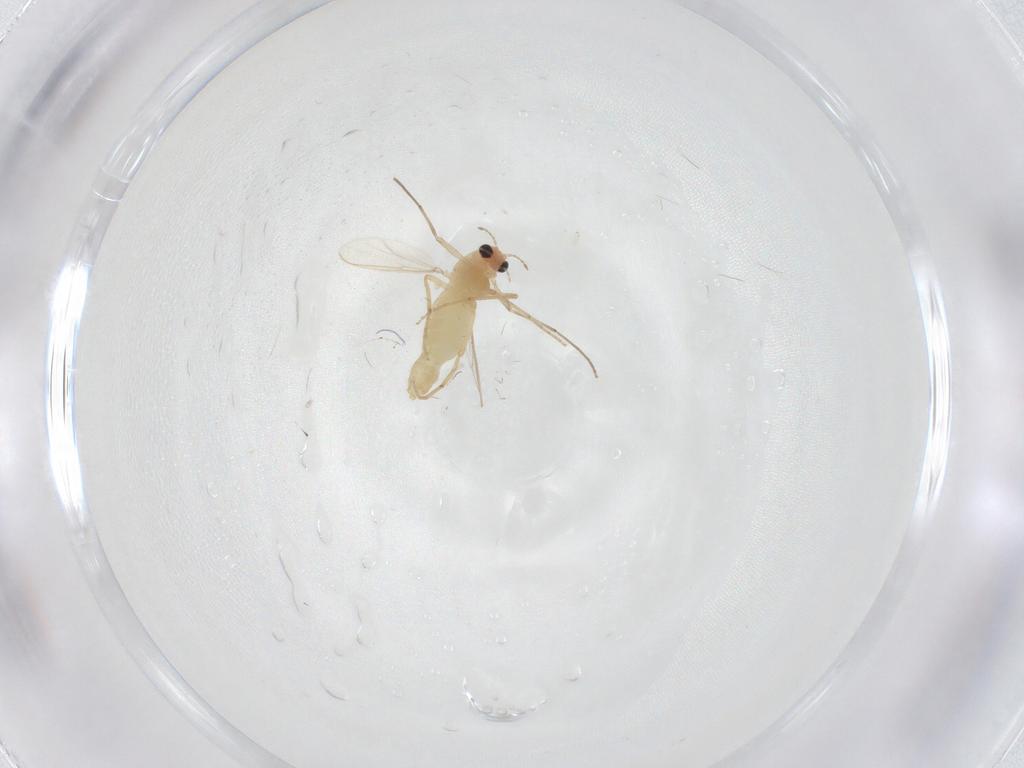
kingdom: Animalia
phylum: Arthropoda
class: Insecta
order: Diptera
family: Chironomidae
